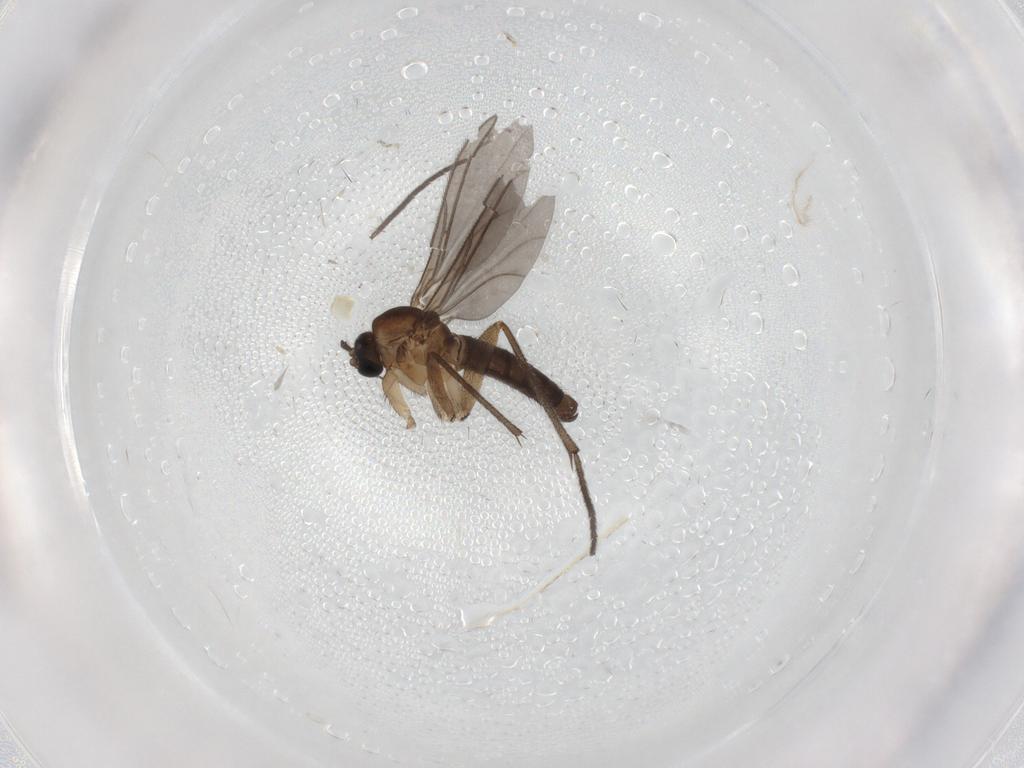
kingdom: Animalia
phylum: Arthropoda
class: Insecta
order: Diptera
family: Sciaridae
